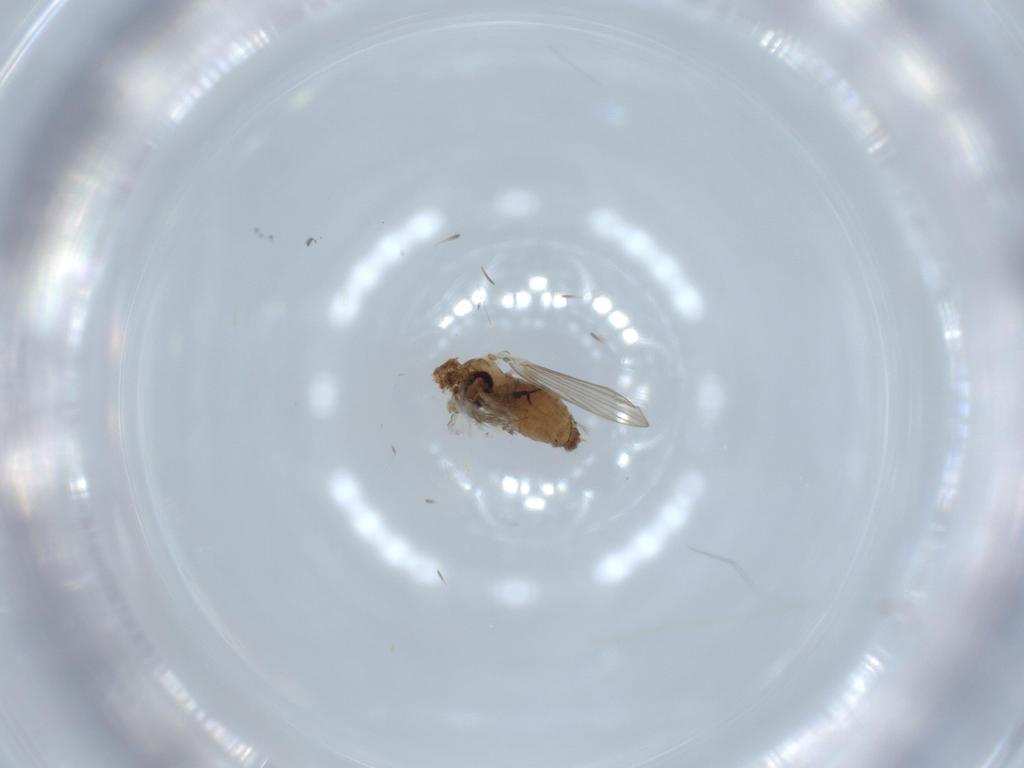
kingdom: Animalia
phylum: Arthropoda
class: Insecta
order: Diptera
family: Psychodidae
